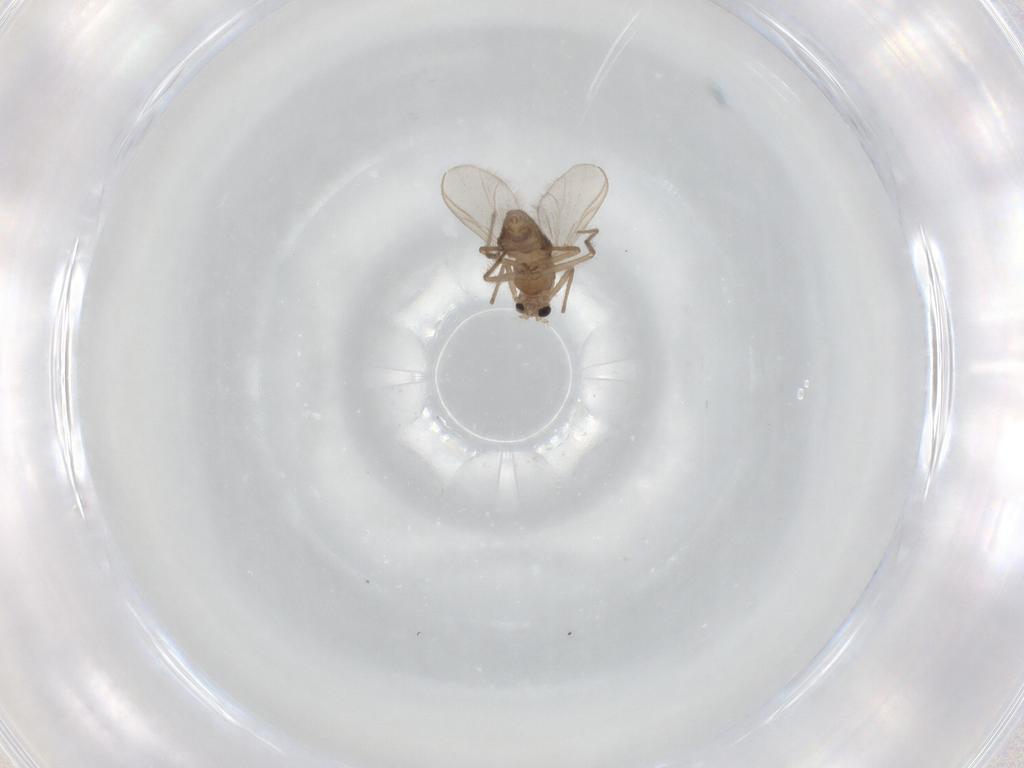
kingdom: Animalia
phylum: Arthropoda
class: Insecta
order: Diptera
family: Chironomidae
